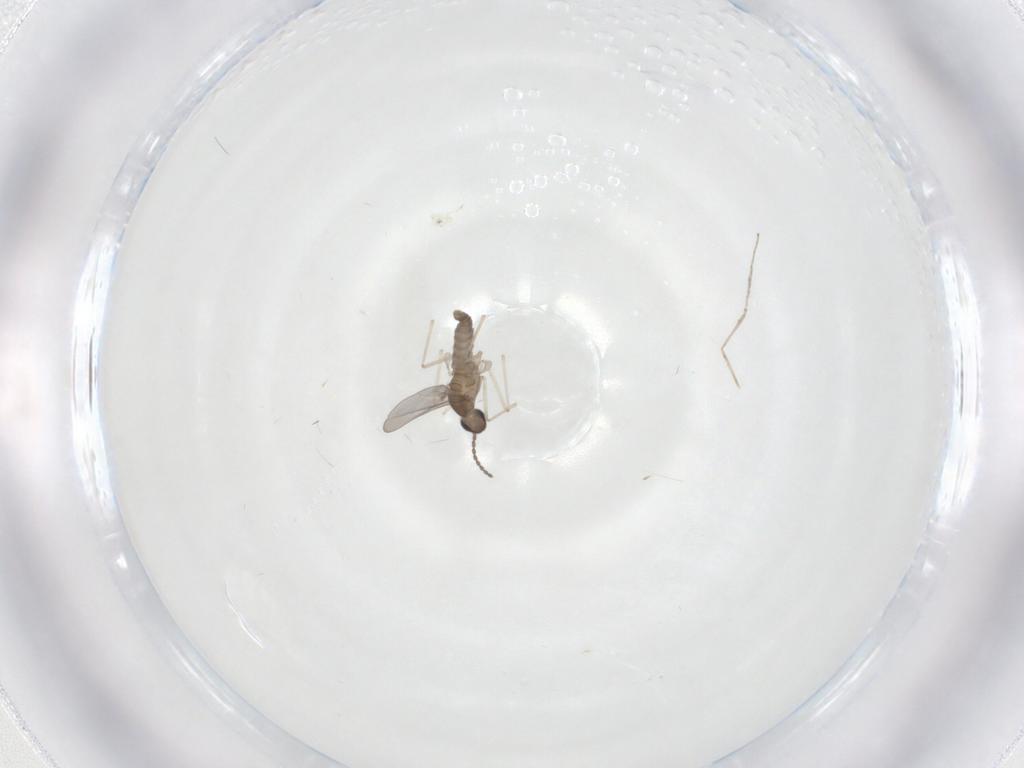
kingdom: Animalia
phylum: Arthropoda
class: Insecta
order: Diptera
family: Cecidomyiidae
